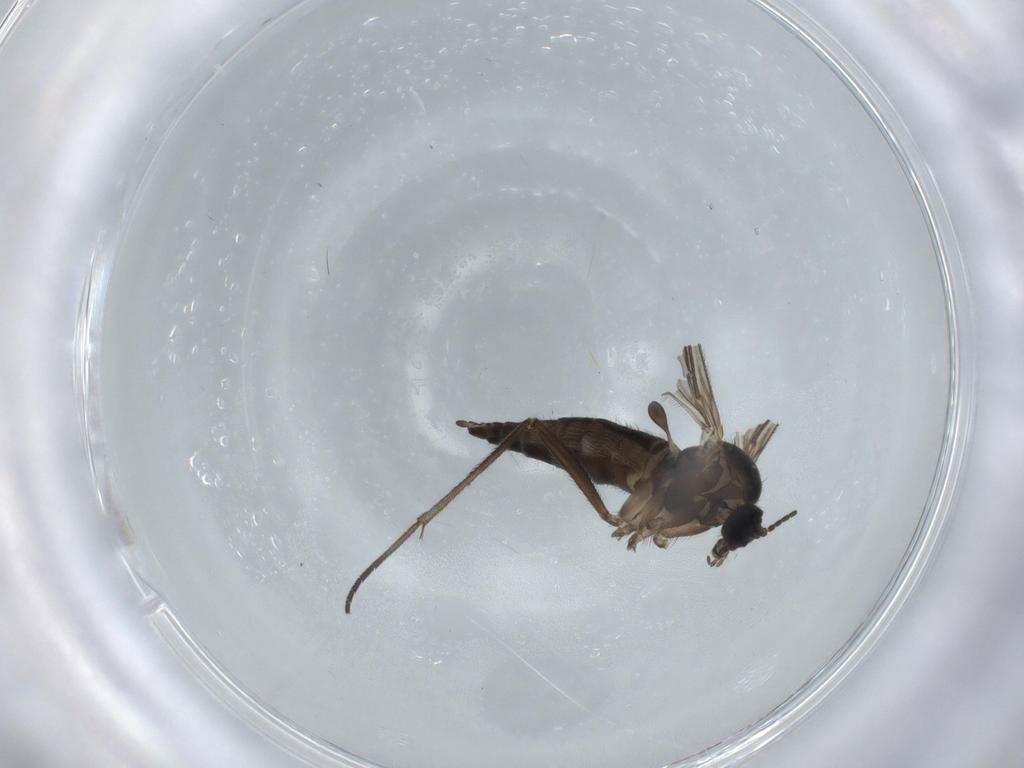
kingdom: Animalia
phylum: Arthropoda
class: Insecta
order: Diptera
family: Sciaridae
